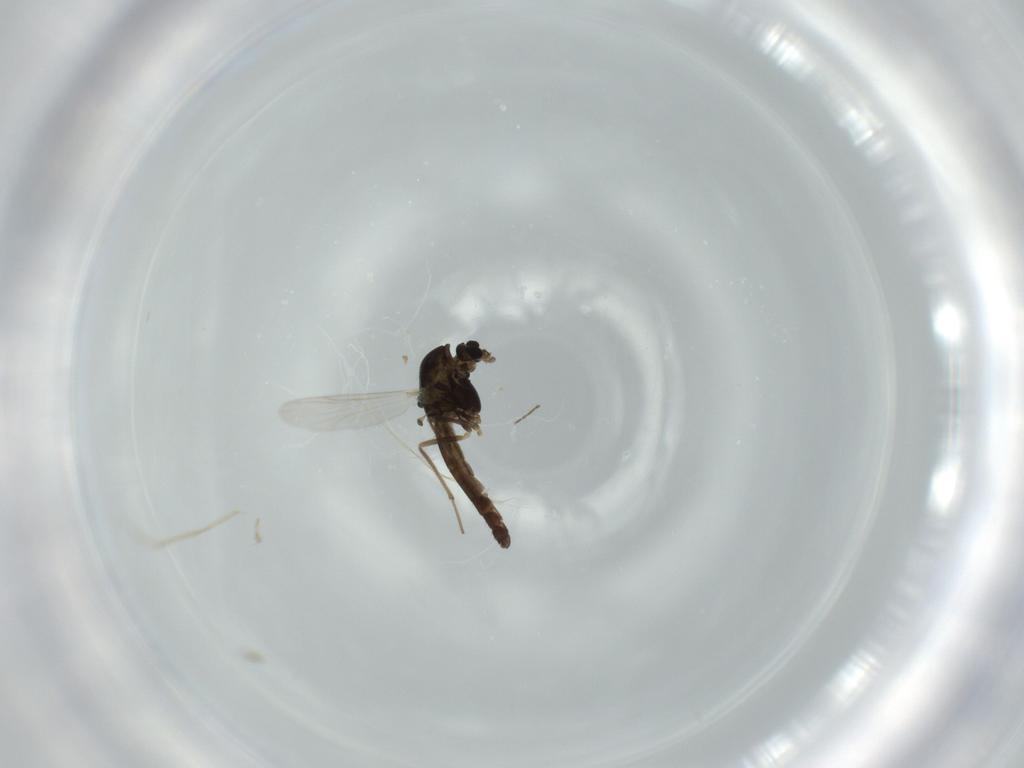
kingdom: Animalia
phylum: Arthropoda
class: Insecta
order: Diptera
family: Chironomidae
